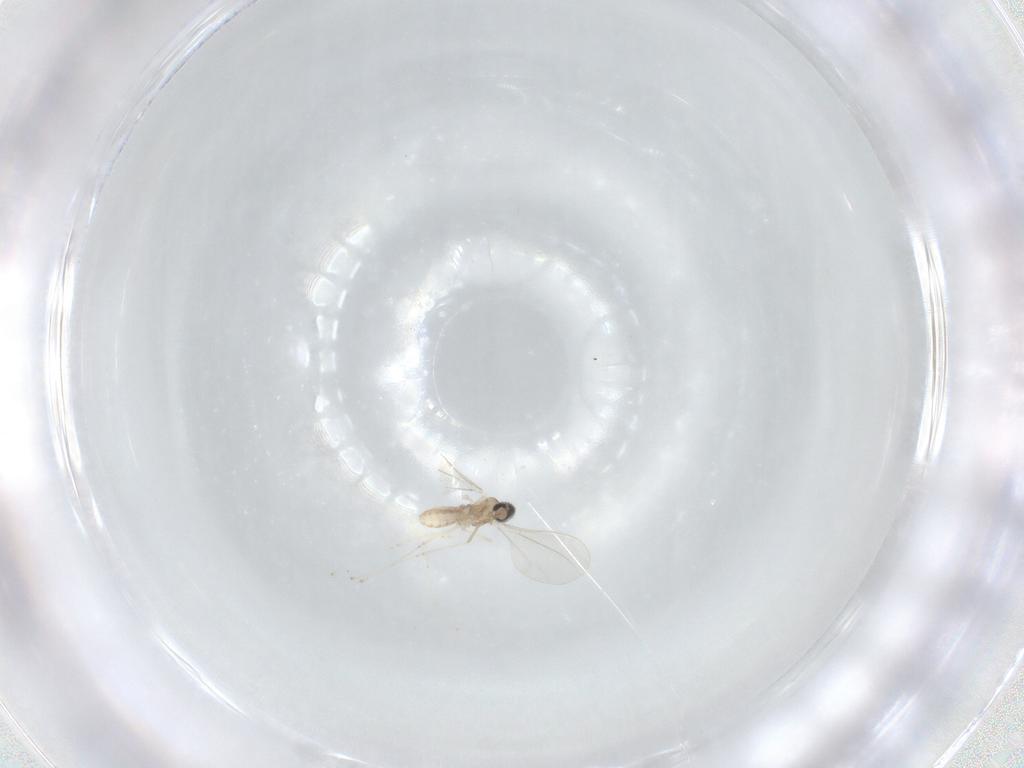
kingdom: Animalia
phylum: Arthropoda
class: Insecta
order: Diptera
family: Cecidomyiidae
